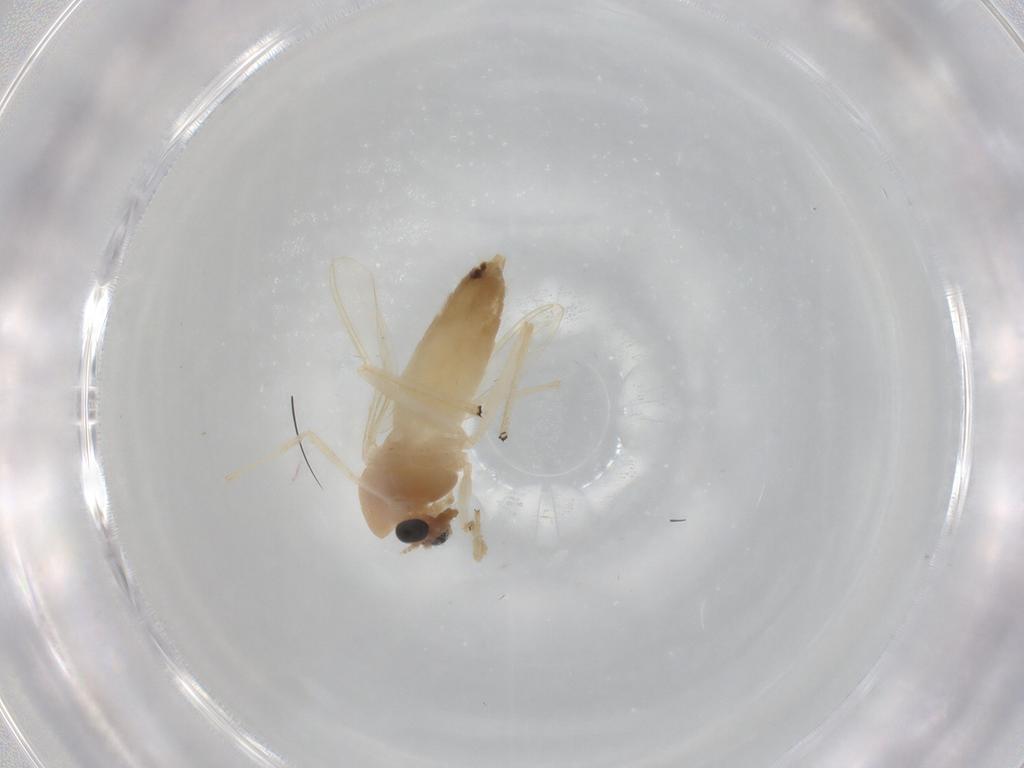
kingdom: Animalia
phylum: Arthropoda
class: Insecta
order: Diptera
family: Chironomidae
